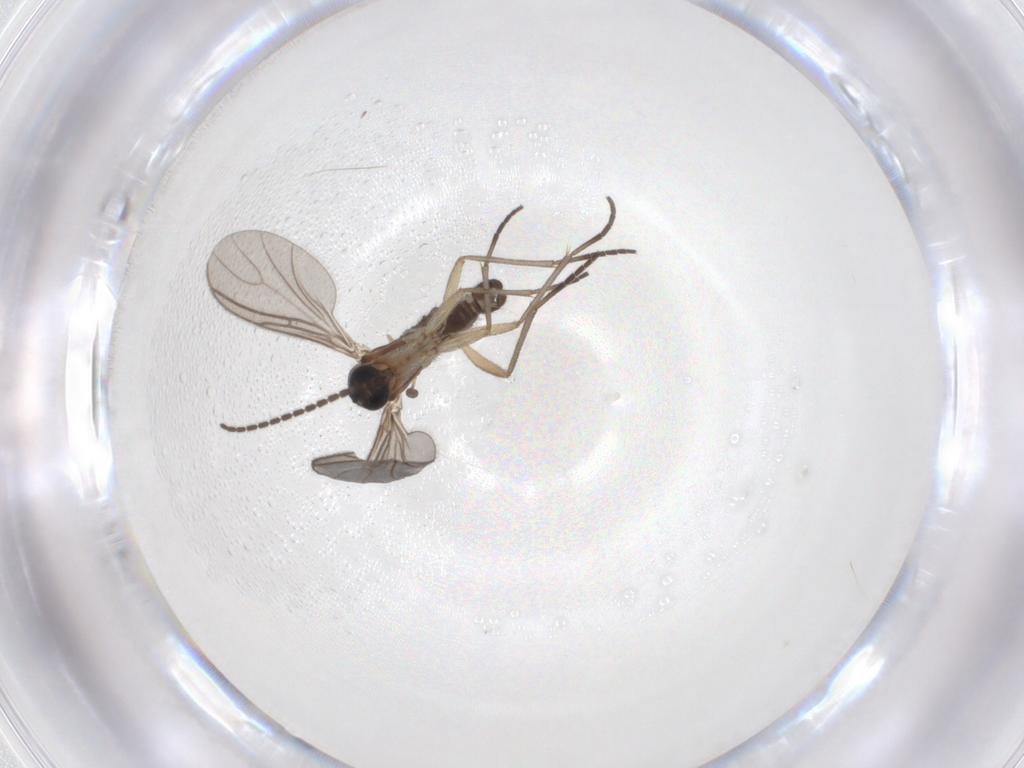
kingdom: Animalia
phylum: Arthropoda
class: Insecta
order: Diptera
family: Sciaridae
